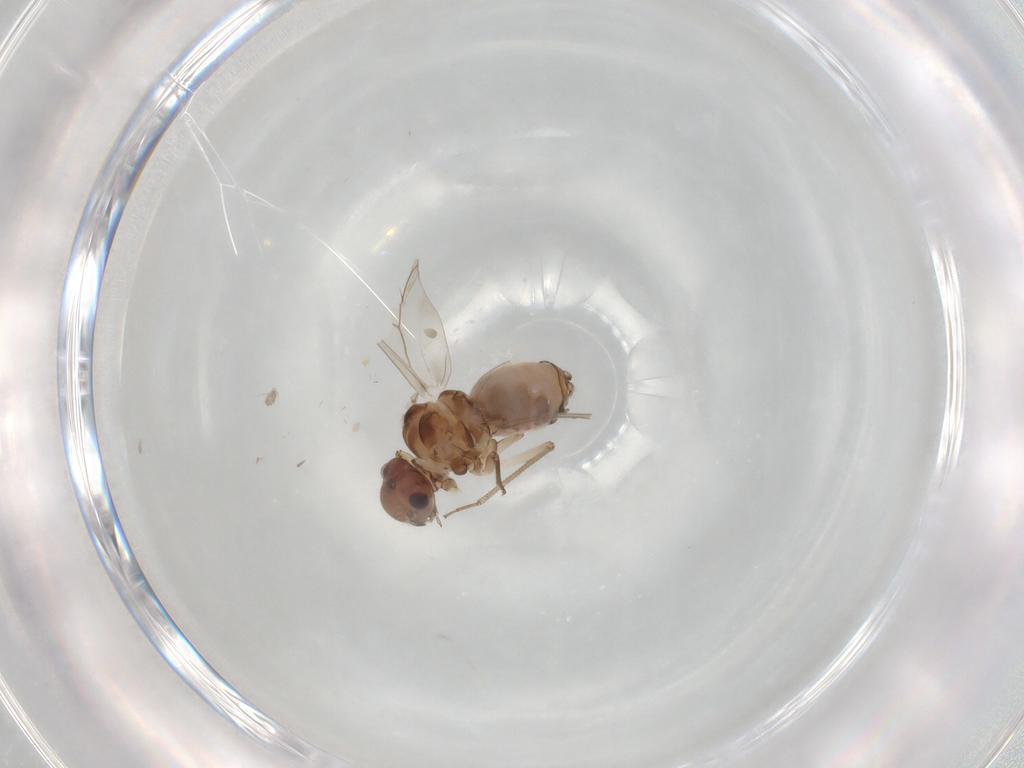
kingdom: Animalia
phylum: Arthropoda
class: Insecta
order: Psocodea
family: Peripsocidae
